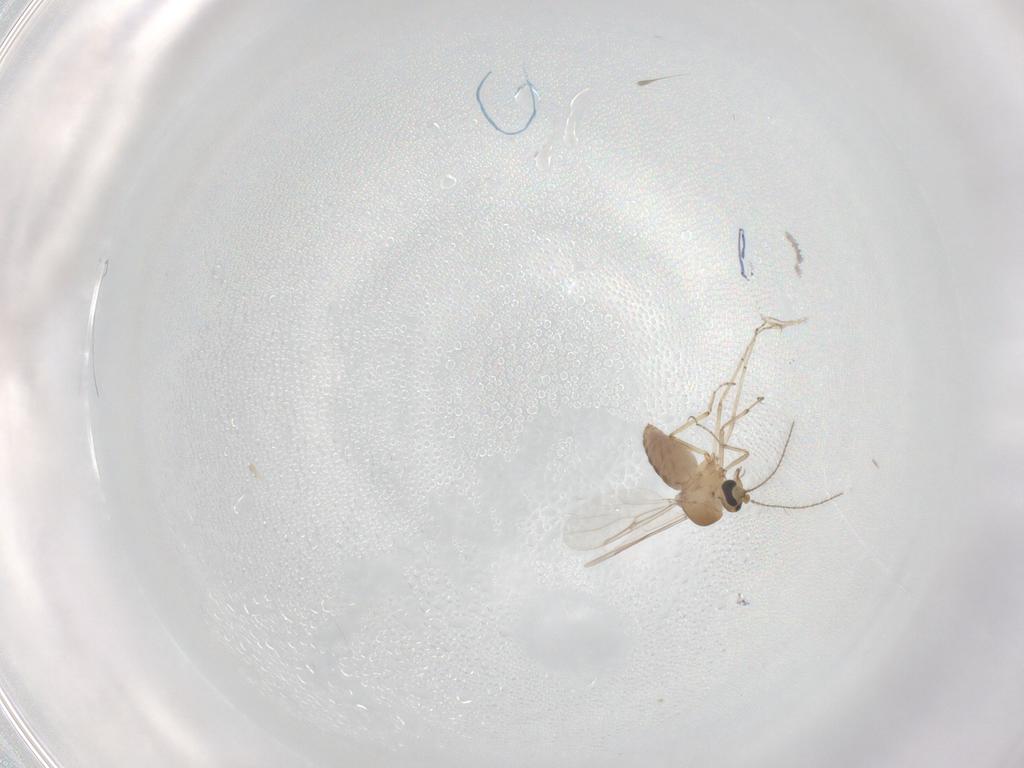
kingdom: Animalia
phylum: Arthropoda
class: Insecta
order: Diptera
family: Ceratopogonidae
